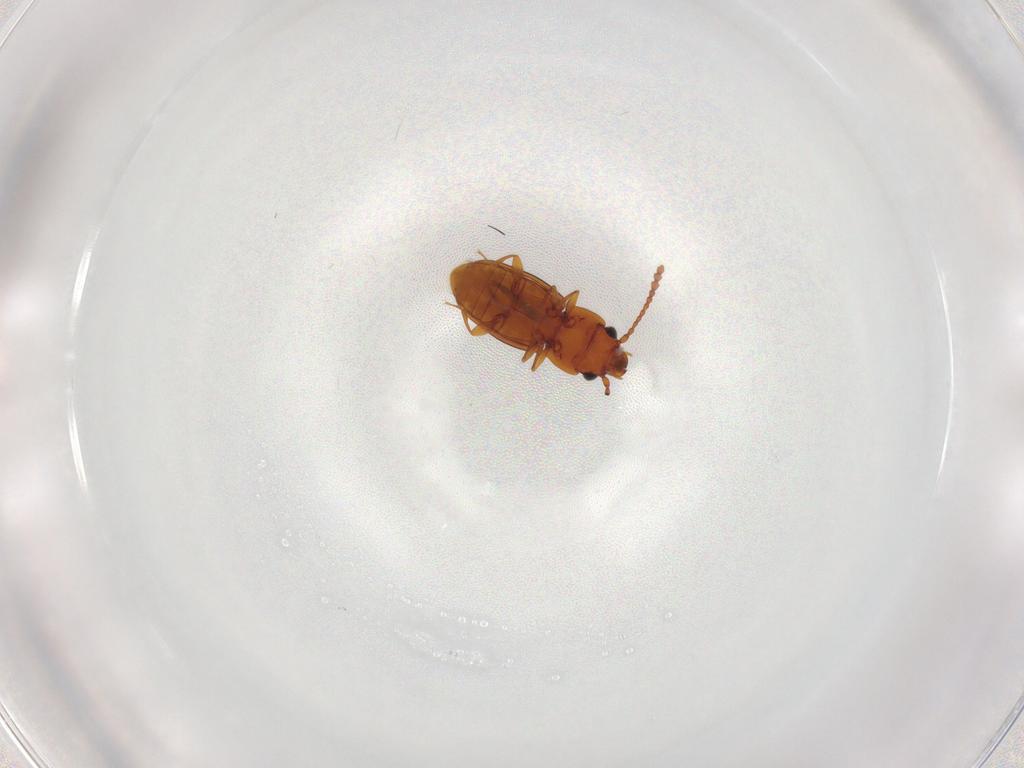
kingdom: Animalia
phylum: Arthropoda
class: Insecta
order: Coleoptera
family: Laemophloeidae
